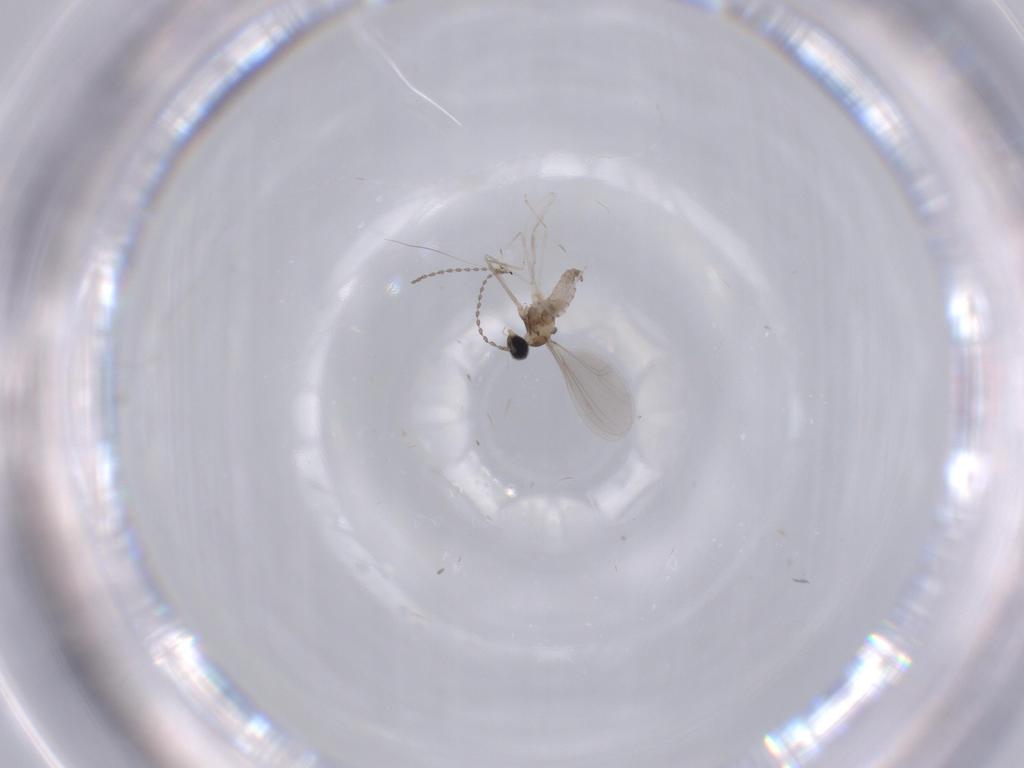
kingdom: Animalia
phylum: Arthropoda
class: Insecta
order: Diptera
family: Cecidomyiidae
